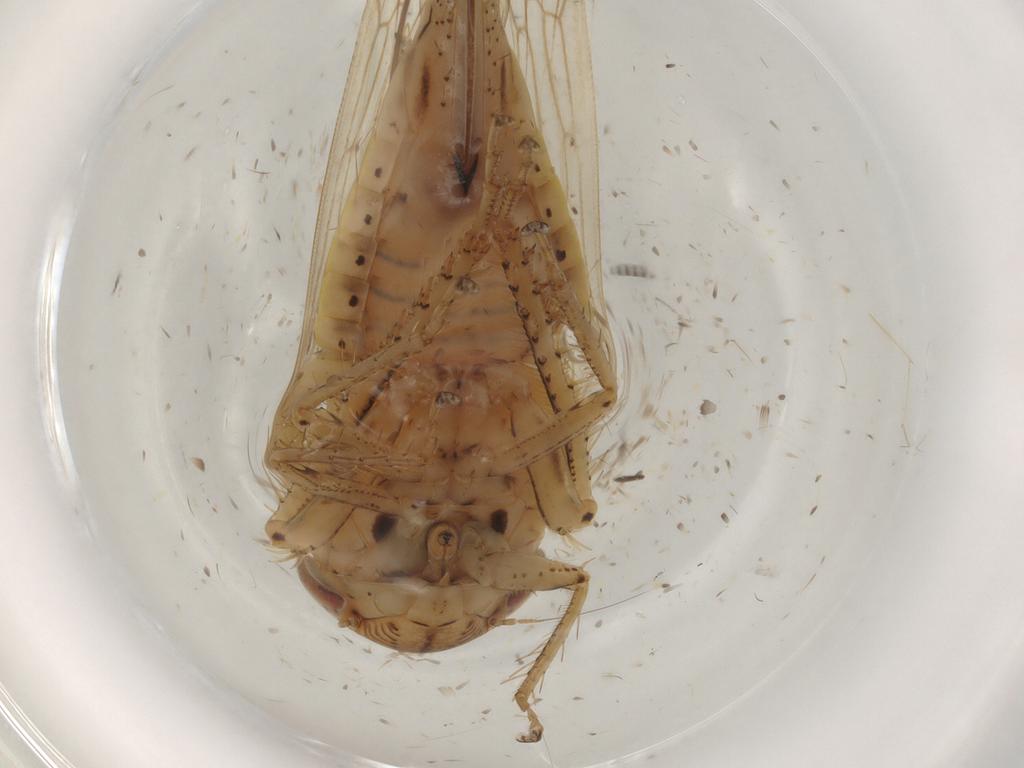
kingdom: Animalia
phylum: Arthropoda
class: Insecta
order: Hemiptera
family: Cicadellidae
